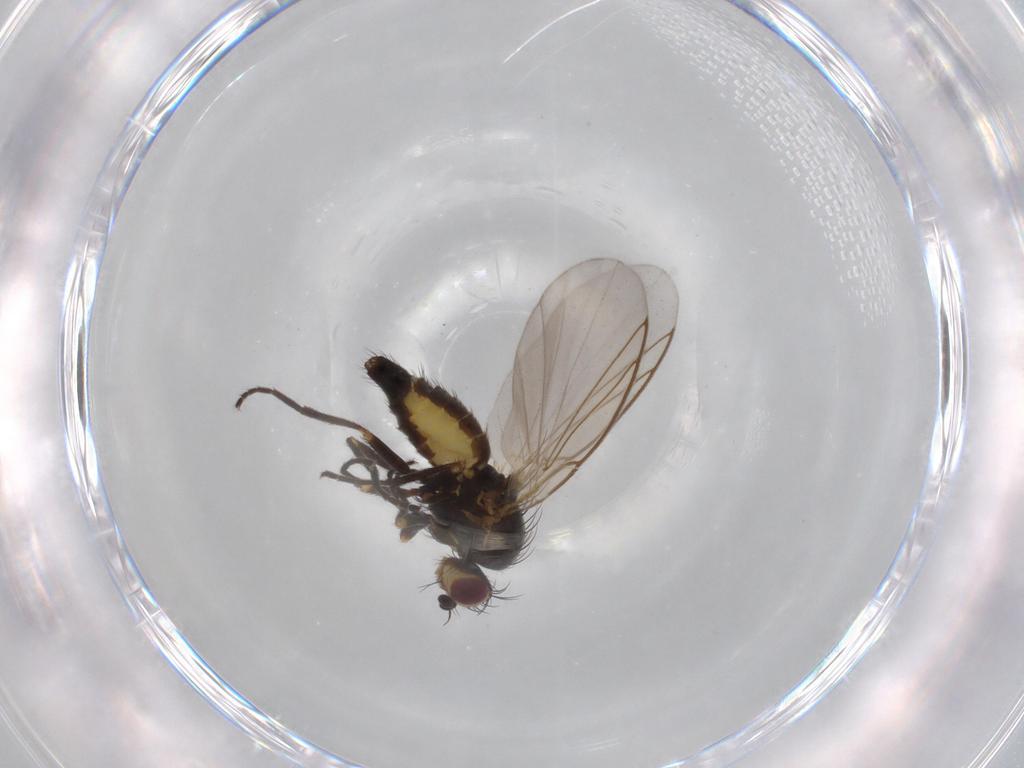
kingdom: Animalia
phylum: Arthropoda
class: Insecta
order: Diptera
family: Agromyzidae
